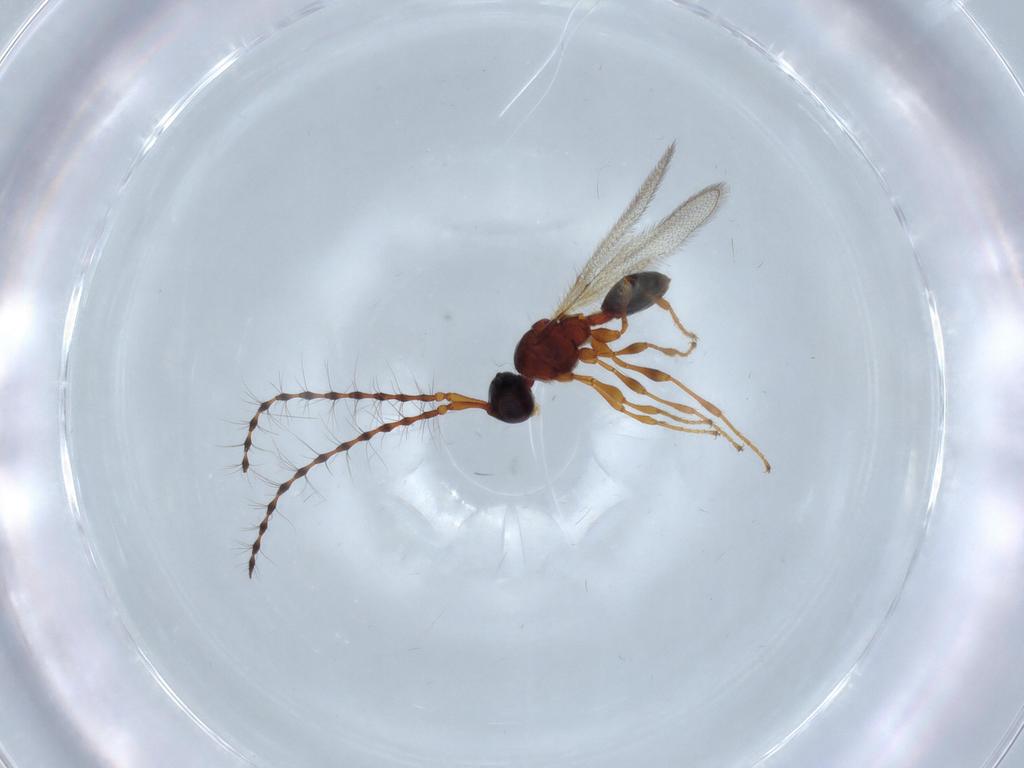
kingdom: Animalia
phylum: Arthropoda
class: Insecta
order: Hymenoptera
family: Diapriidae
